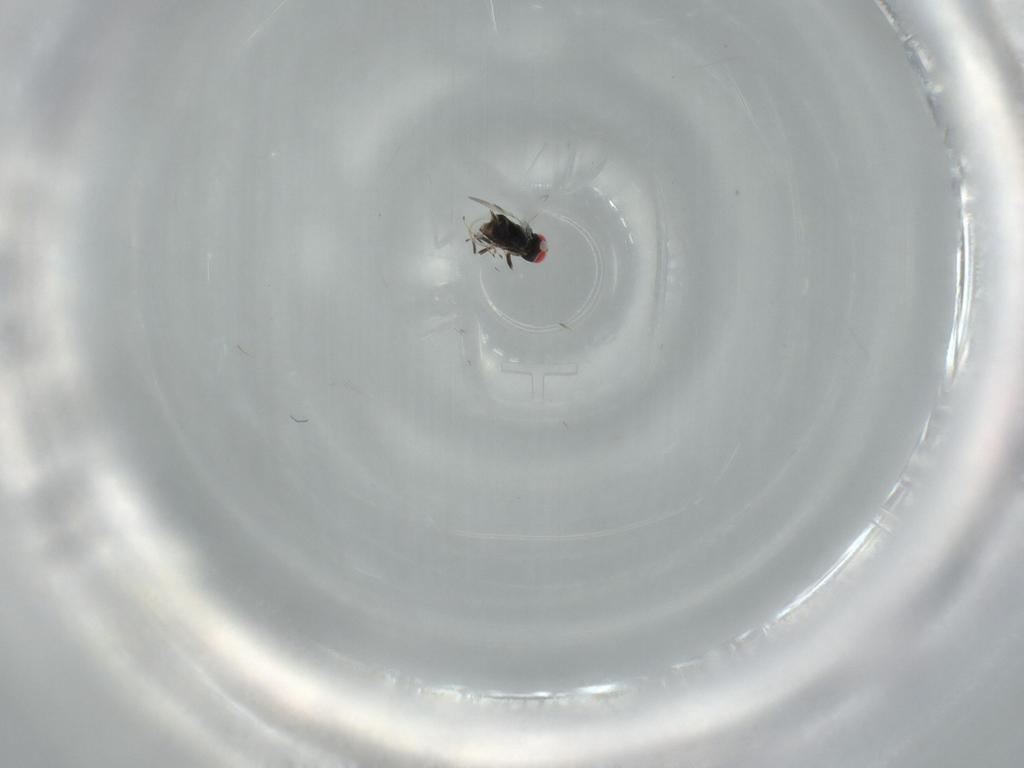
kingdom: Animalia
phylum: Arthropoda
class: Insecta
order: Hymenoptera
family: Azotidae
